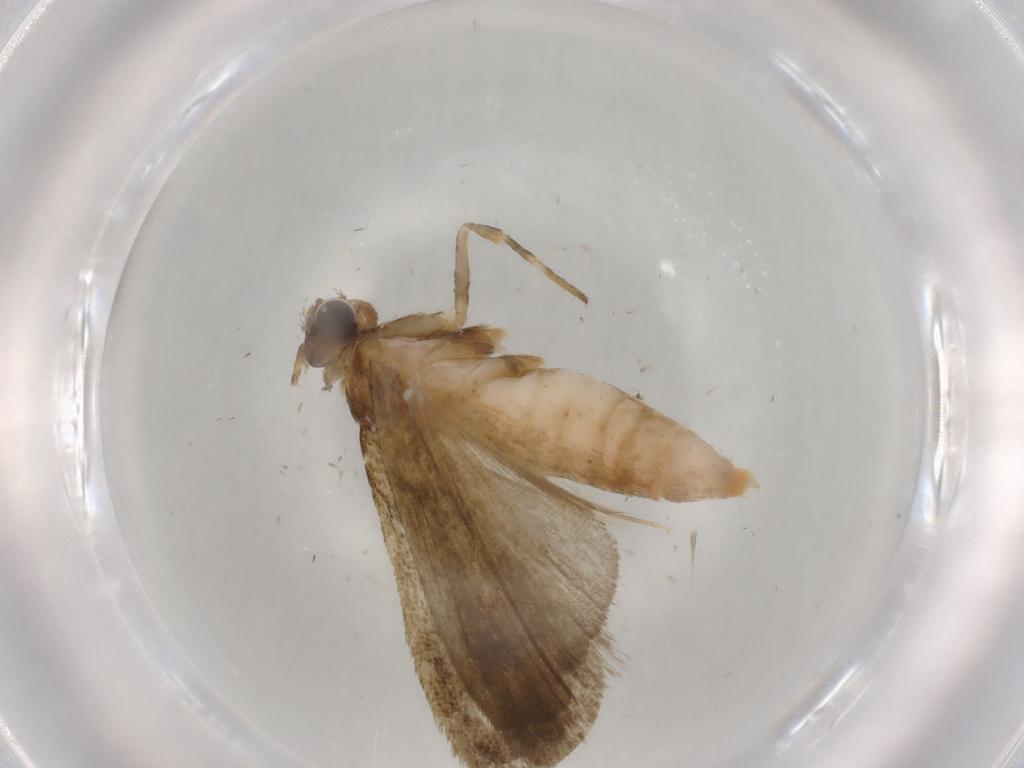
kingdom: Animalia
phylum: Arthropoda
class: Insecta
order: Lepidoptera
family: Noctuidae
